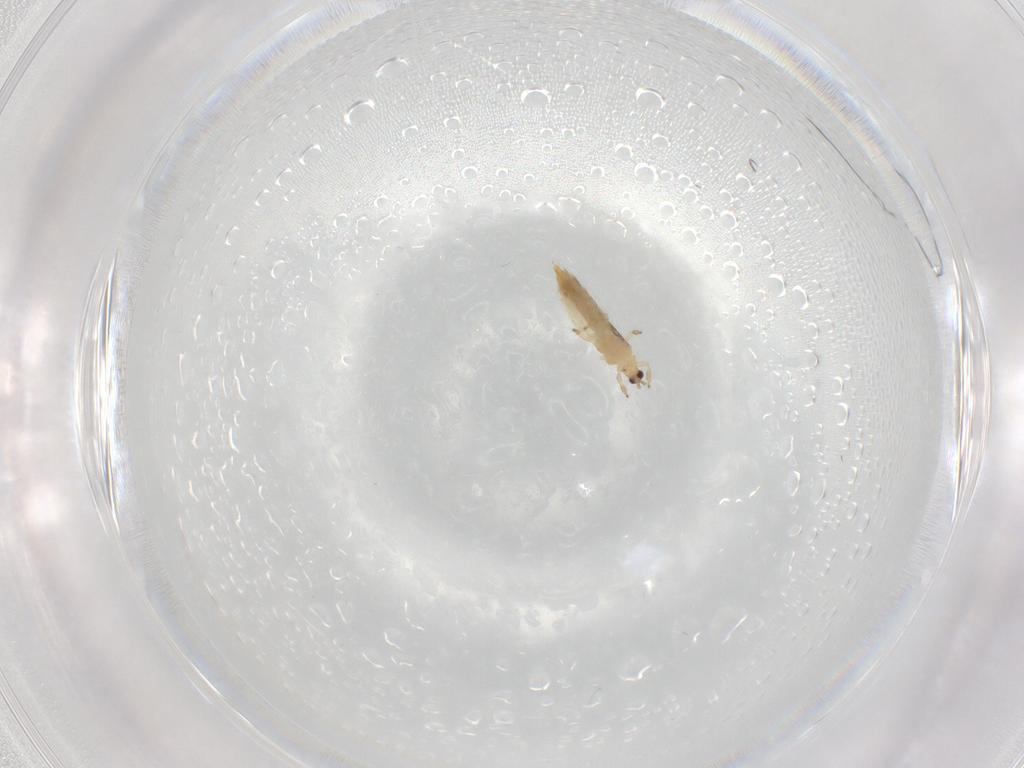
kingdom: Animalia
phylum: Arthropoda
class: Insecta
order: Thysanoptera
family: Thripidae
